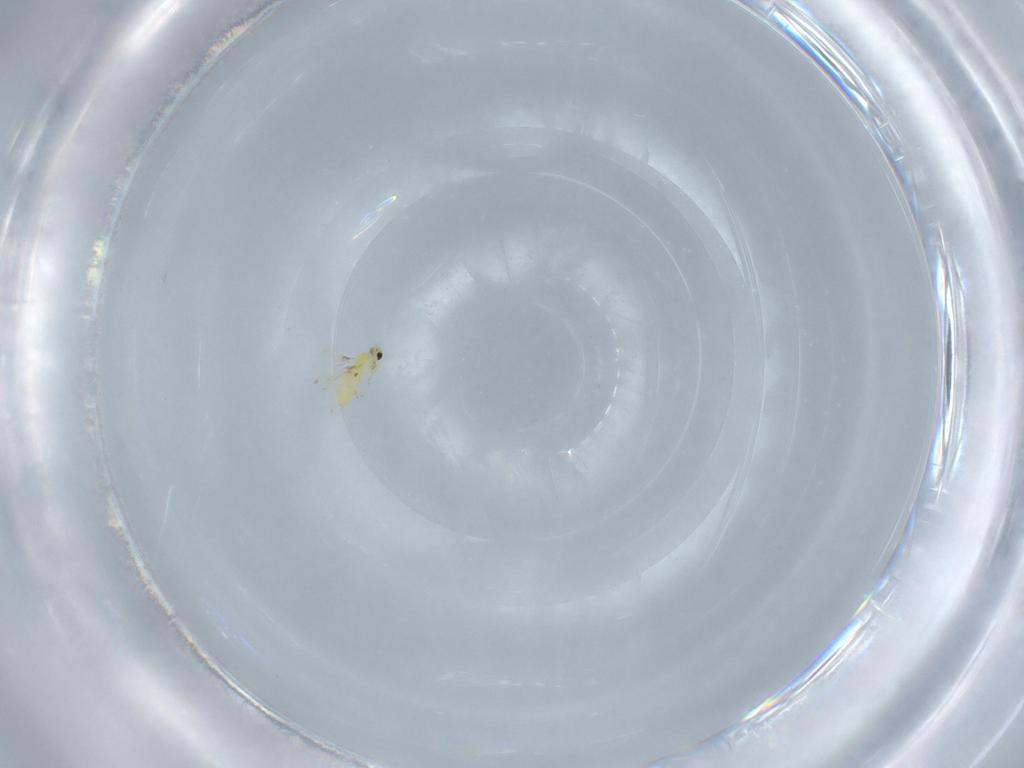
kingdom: Animalia
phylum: Arthropoda
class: Insecta
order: Hymenoptera
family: Trichogrammatidae
